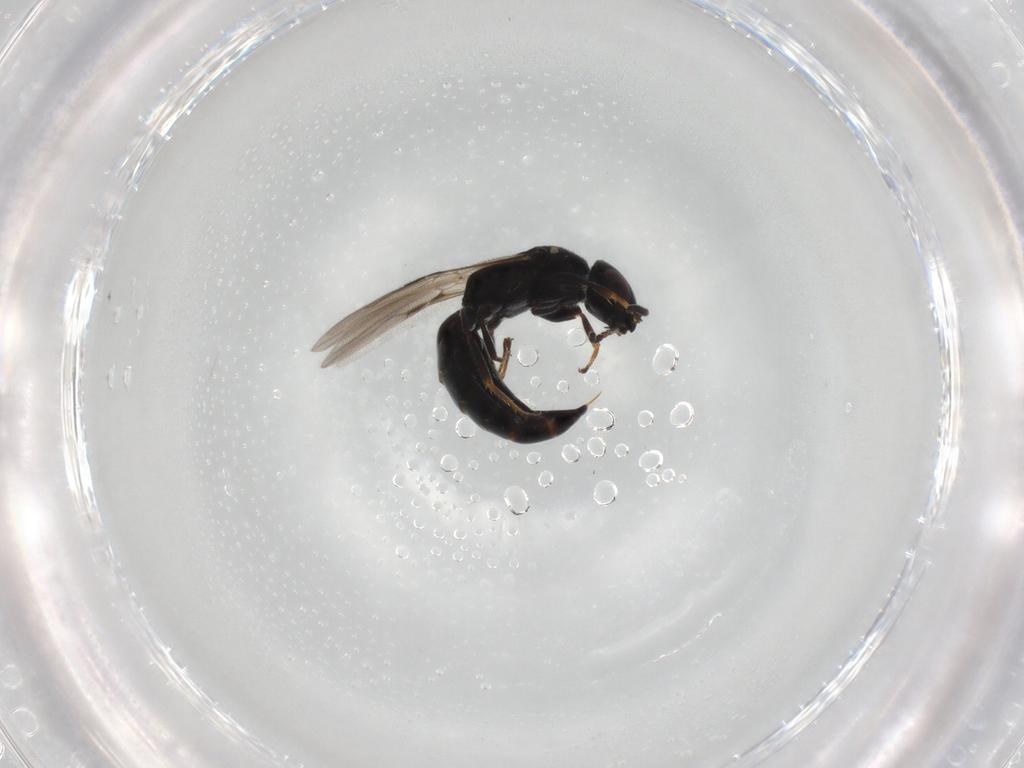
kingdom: Animalia
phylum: Arthropoda
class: Insecta
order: Hymenoptera
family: Bethylidae
